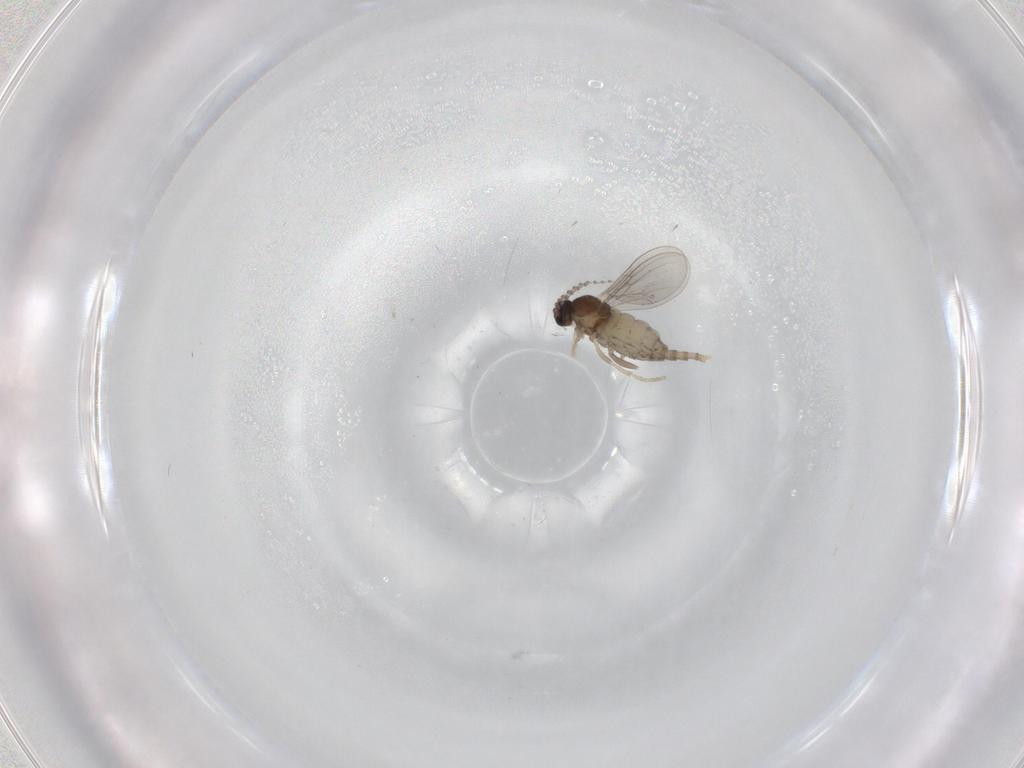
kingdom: Animalia
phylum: Arthropoda
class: Insecta
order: Diptera
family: Cecidomyiidae
